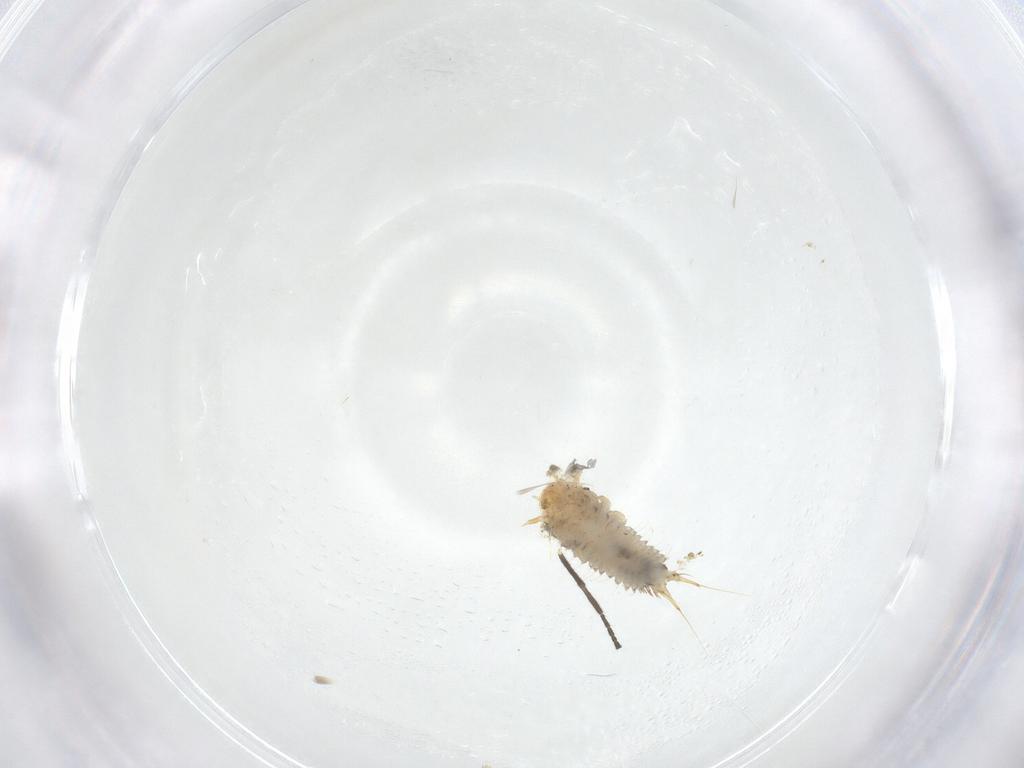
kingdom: Animalia
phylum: Arthropoda
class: Insecta
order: Coleoptera
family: Nitidulidae
